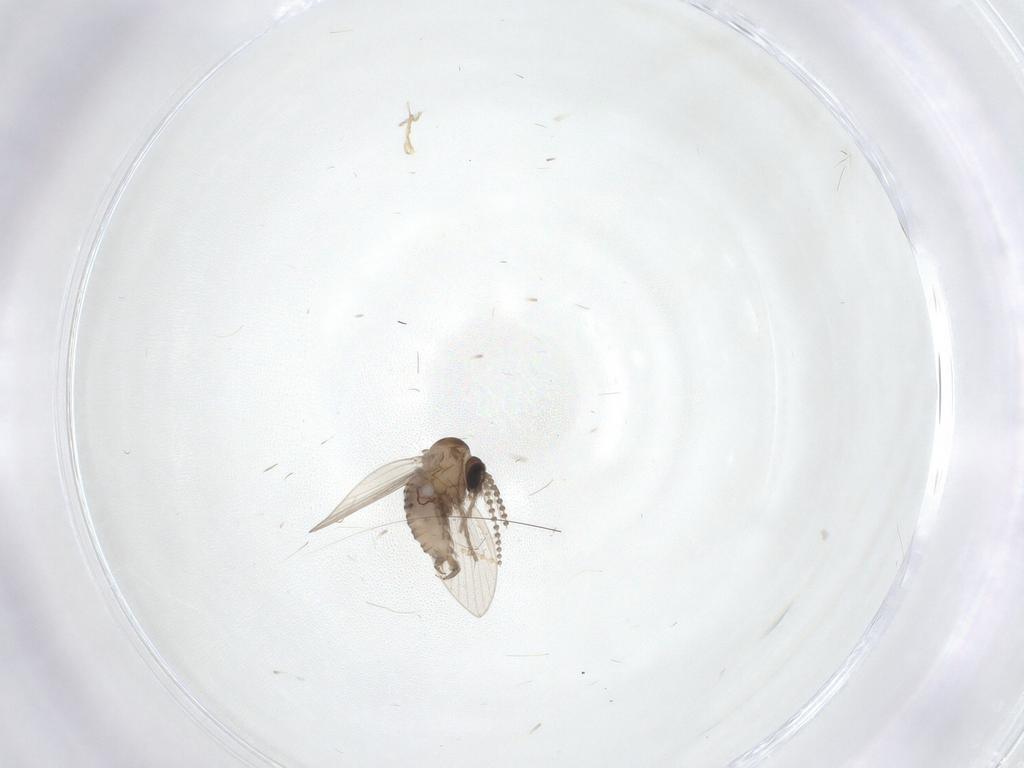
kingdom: Animalia
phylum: Arthropoda
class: Insecta
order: Diptera
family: Psychodidae
